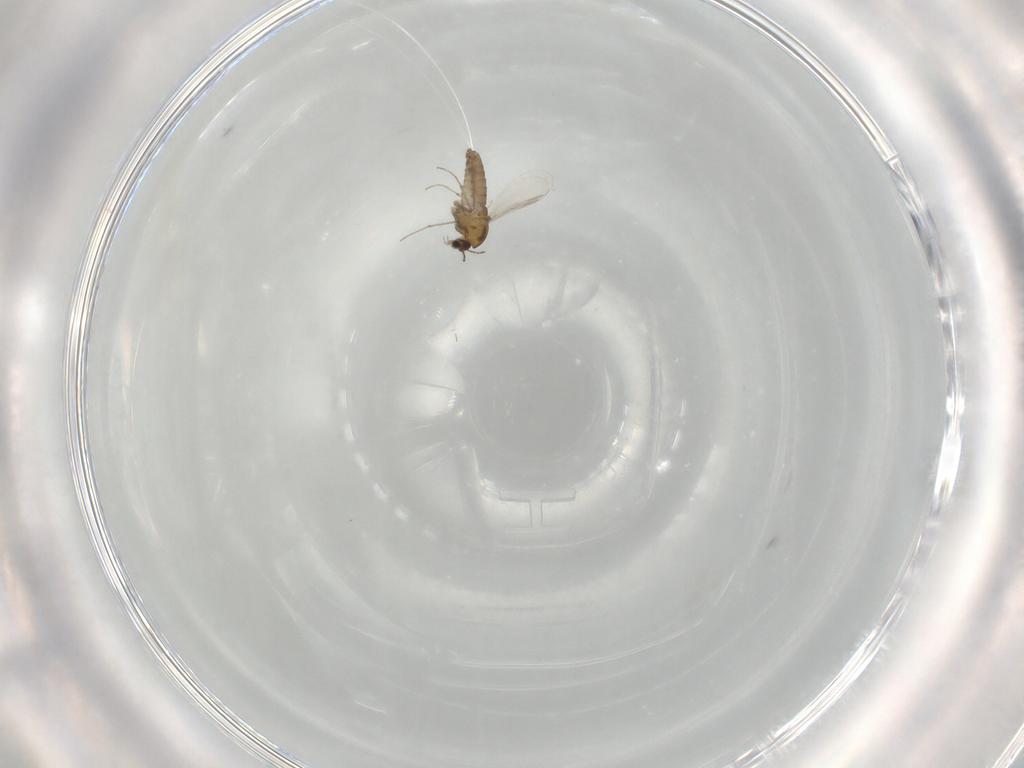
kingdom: Animalia
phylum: Arthropoda
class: Insecta
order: Diptera
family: Chironomidae
